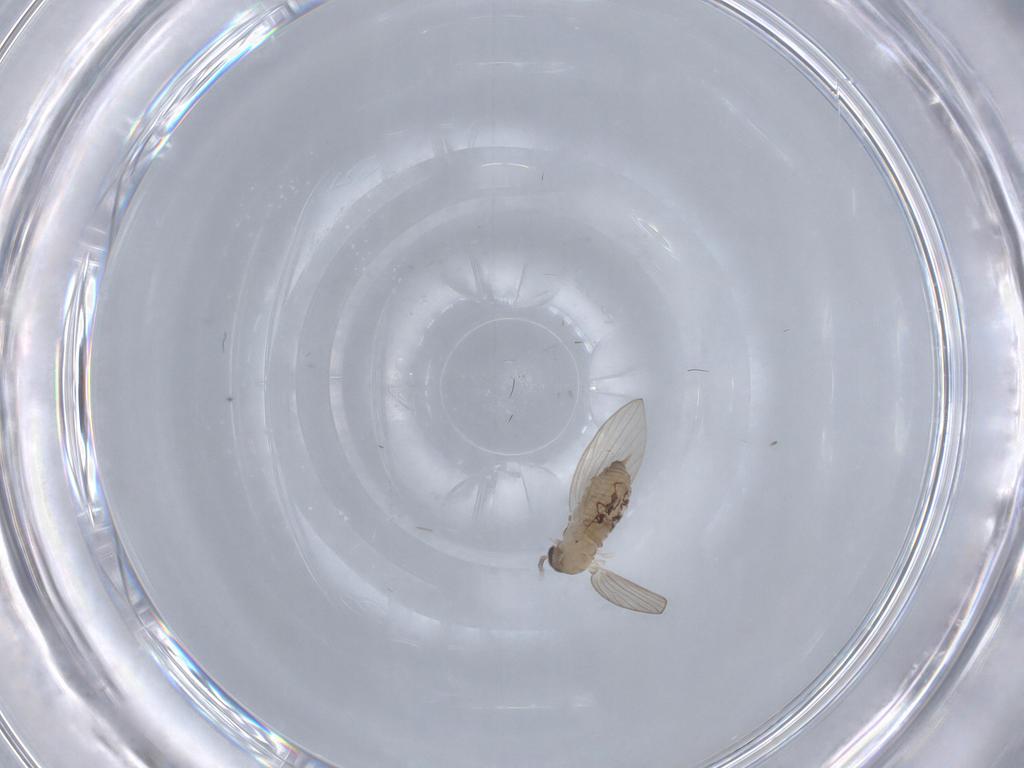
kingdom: Animalia
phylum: Arthropoda
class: Insecta
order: Diptera
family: Psychodidae
